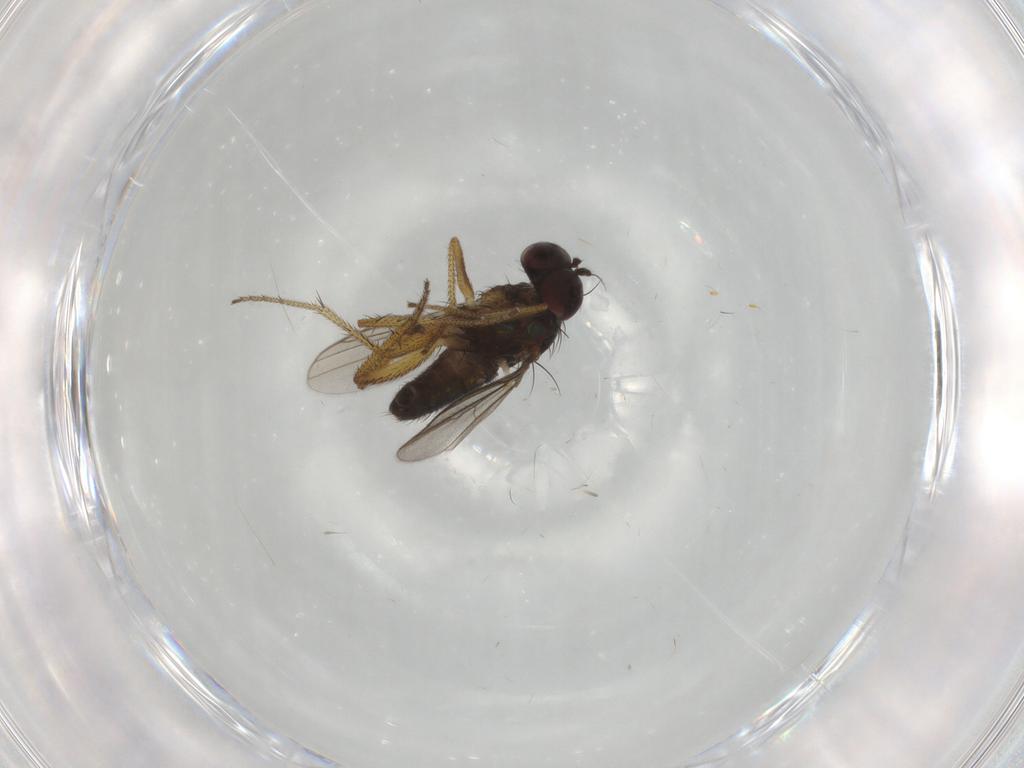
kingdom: Animalia
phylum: Arthropoda
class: Insecta
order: Diptera
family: Dolichopodidae
